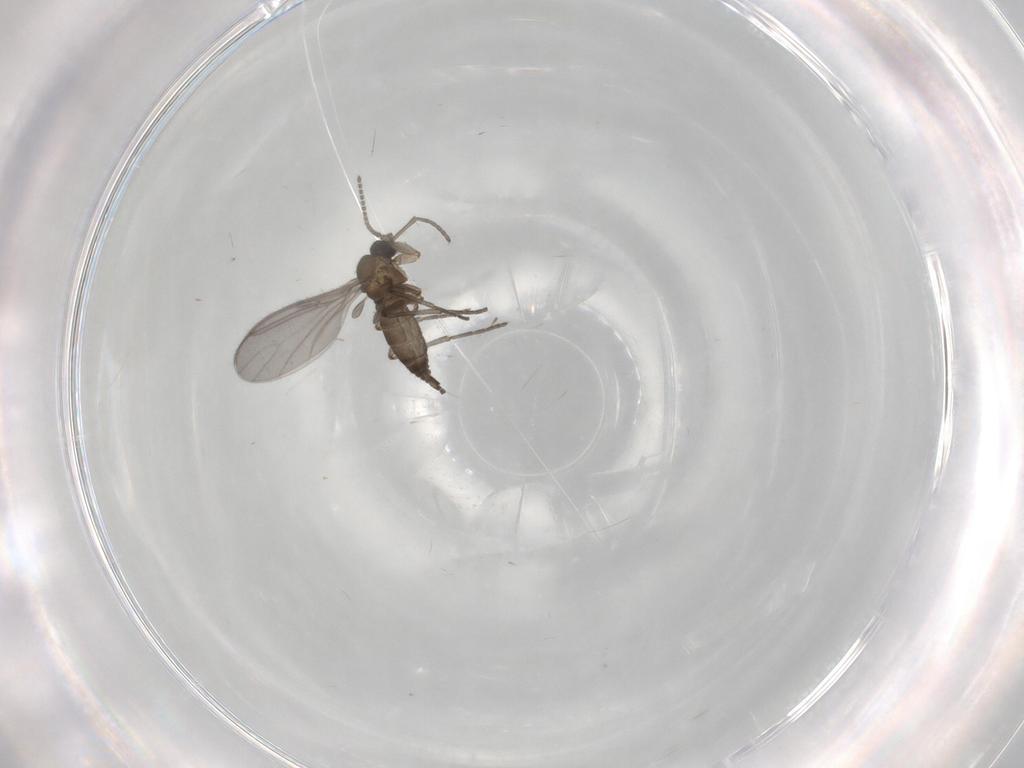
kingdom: Animalia
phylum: Arthropoda
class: Insecta
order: Diptera
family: Sciaridae
